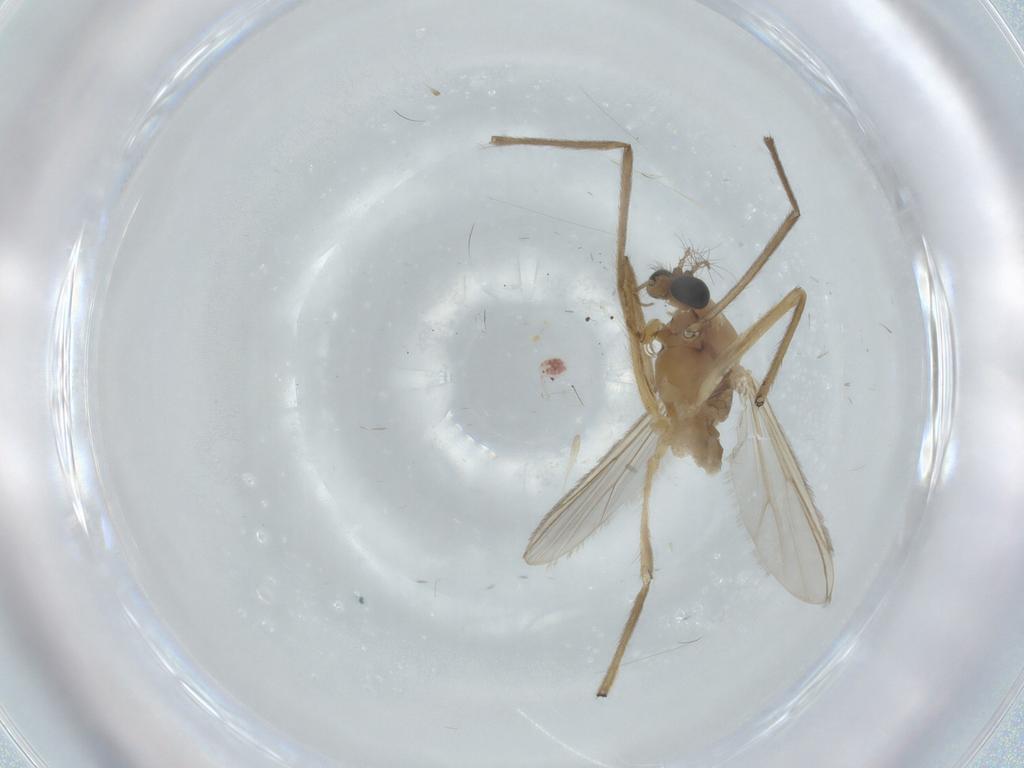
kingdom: Animalia
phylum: Arthropoda
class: Insecta
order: Diptera
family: Chironomidae
